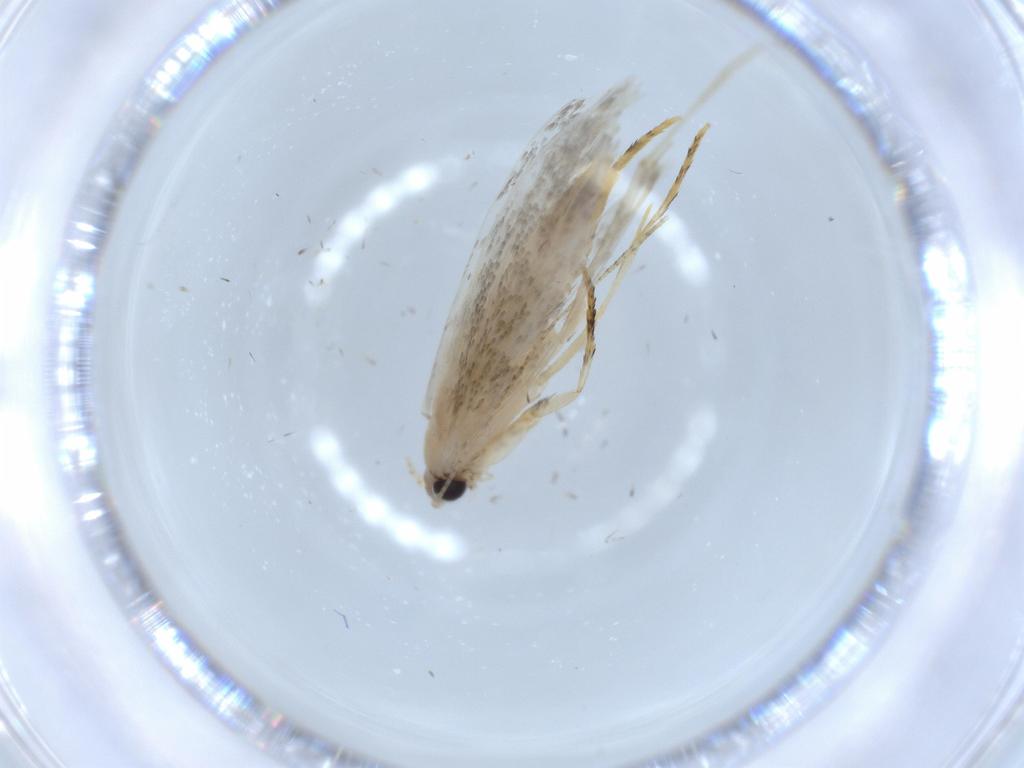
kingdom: Animalia
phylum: Arthropoda
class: Insecta
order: Lepidoptera
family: Tineidae
